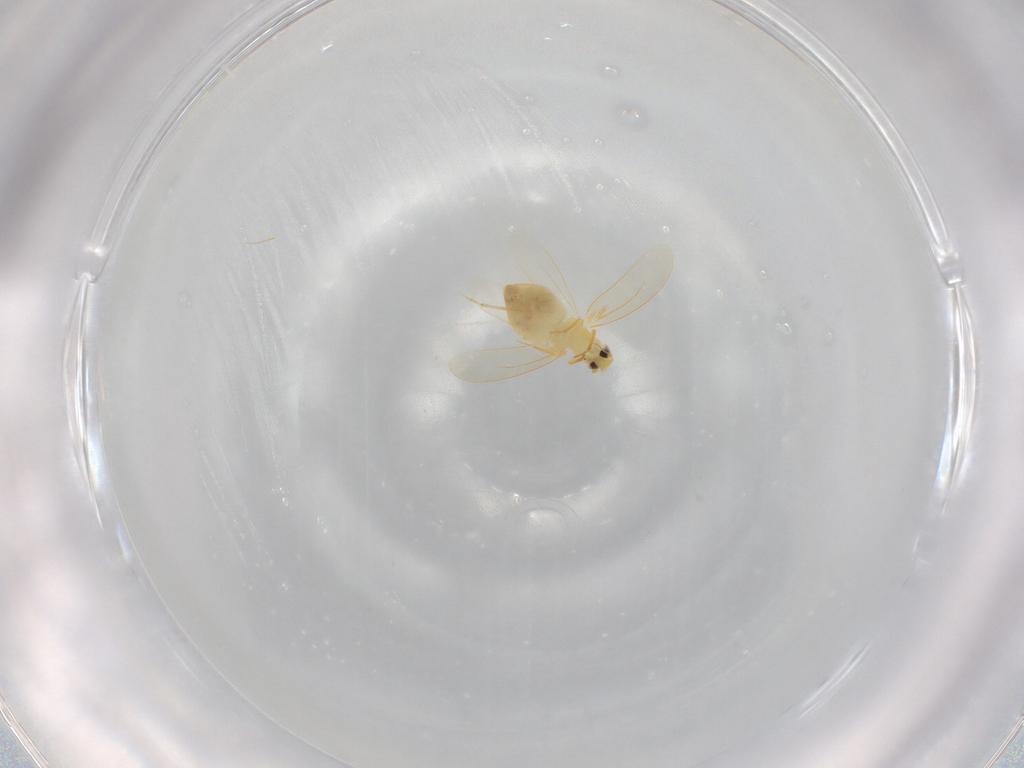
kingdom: Animalia
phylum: Arthropoda
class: Insecta
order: Hemiptera
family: Aleyrodidae
